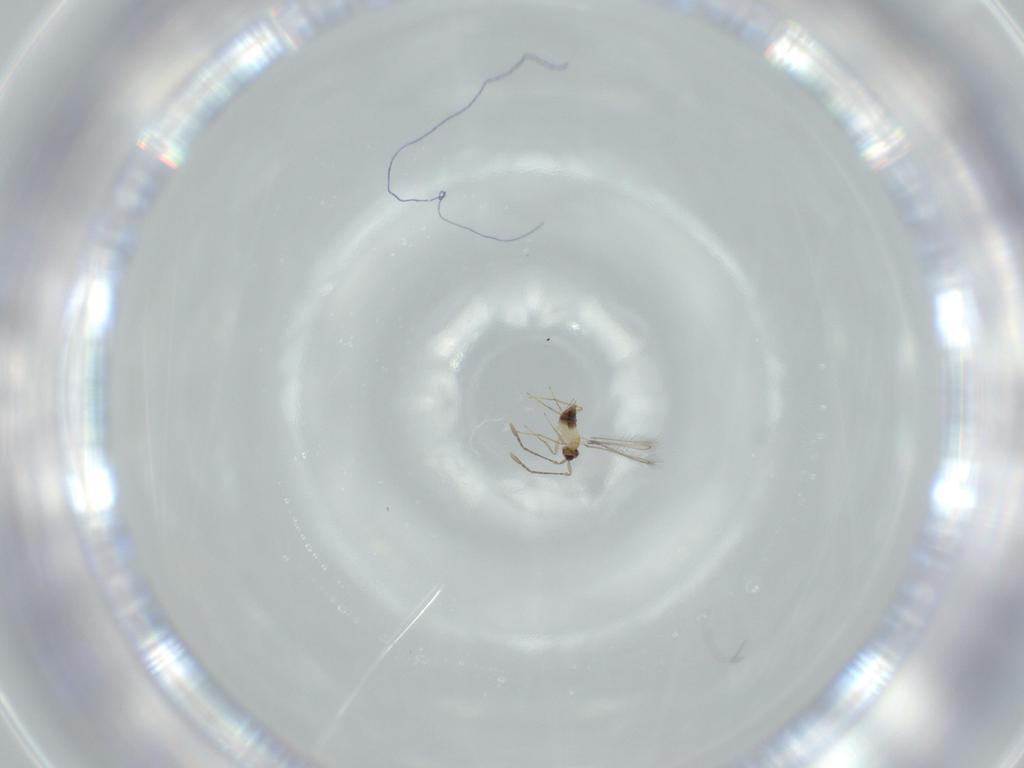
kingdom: Animalia
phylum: Arthropoda
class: Insecta
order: Hymenoptera
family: Mymaridae
